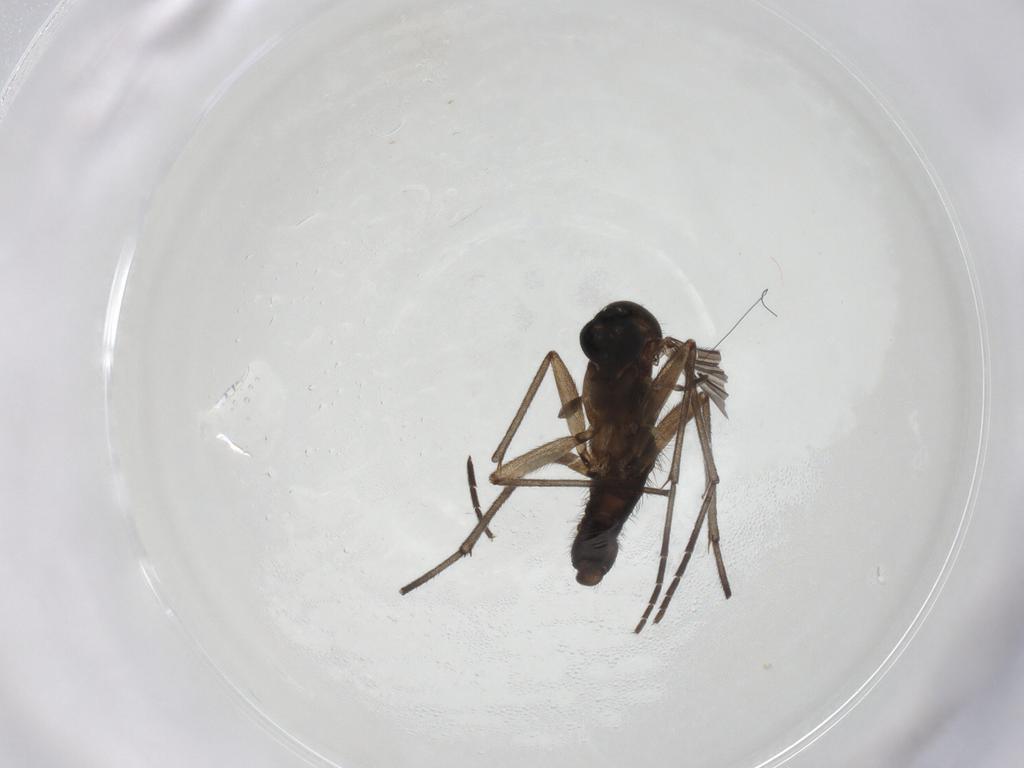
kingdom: Animalia
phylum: Arthropoda
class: Insecta
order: Diptera
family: Sciaridae
